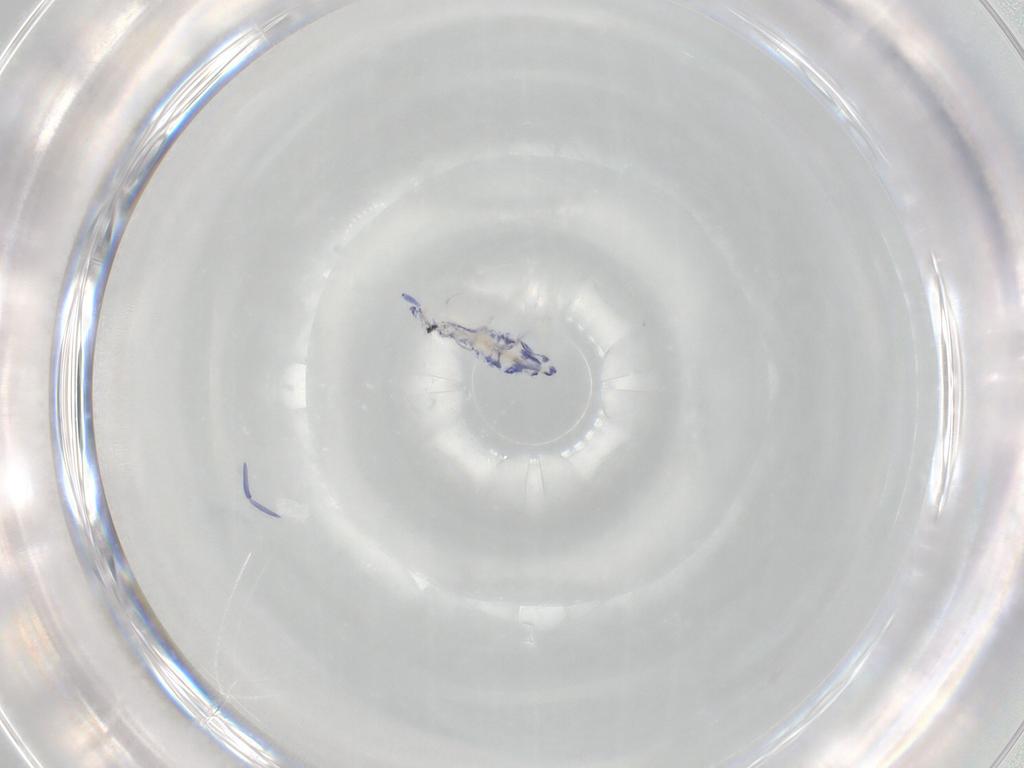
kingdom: Animalia
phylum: Arthropoda
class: Collembola
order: Entomobryomorpha
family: Entomobryidae
